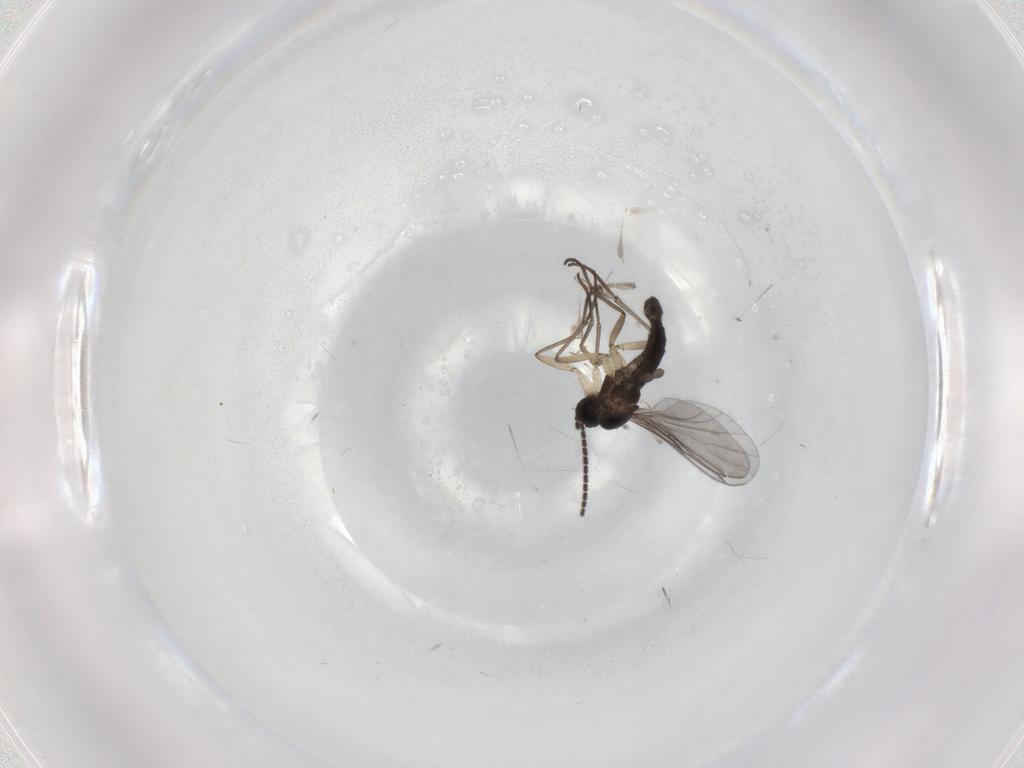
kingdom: Animalia
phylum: Arthropoda
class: Insecta
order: Diptera
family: Sciaridae
